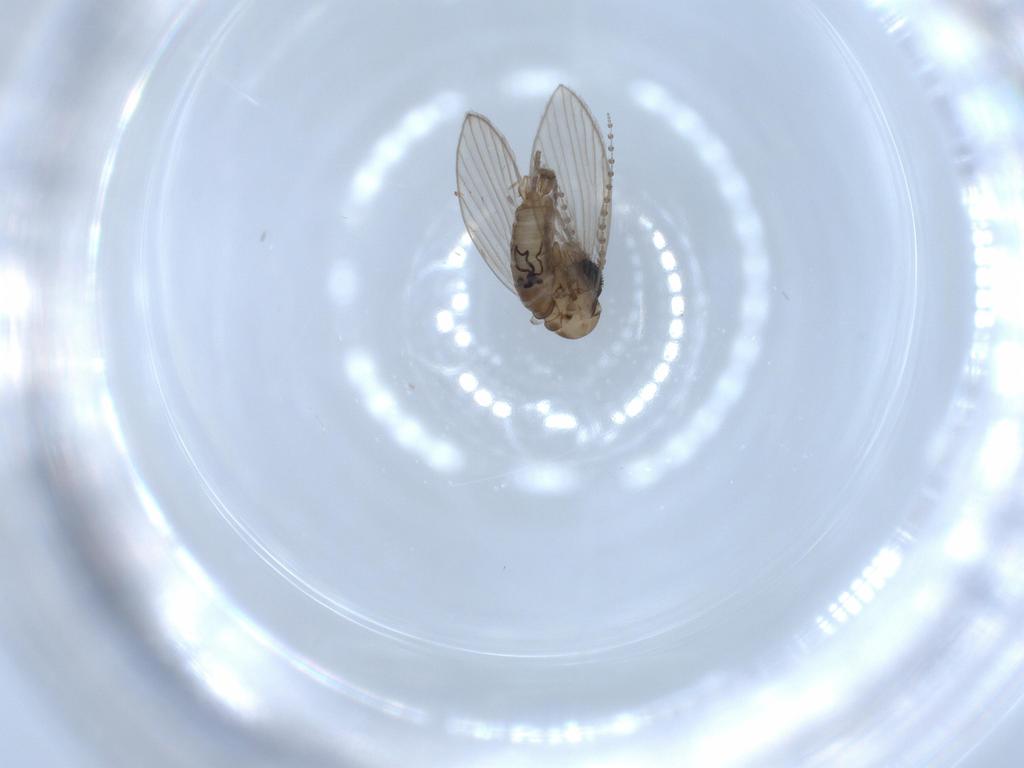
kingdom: Animalia
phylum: Arthropoda
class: Insecta
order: Diptera
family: Psychodidae
